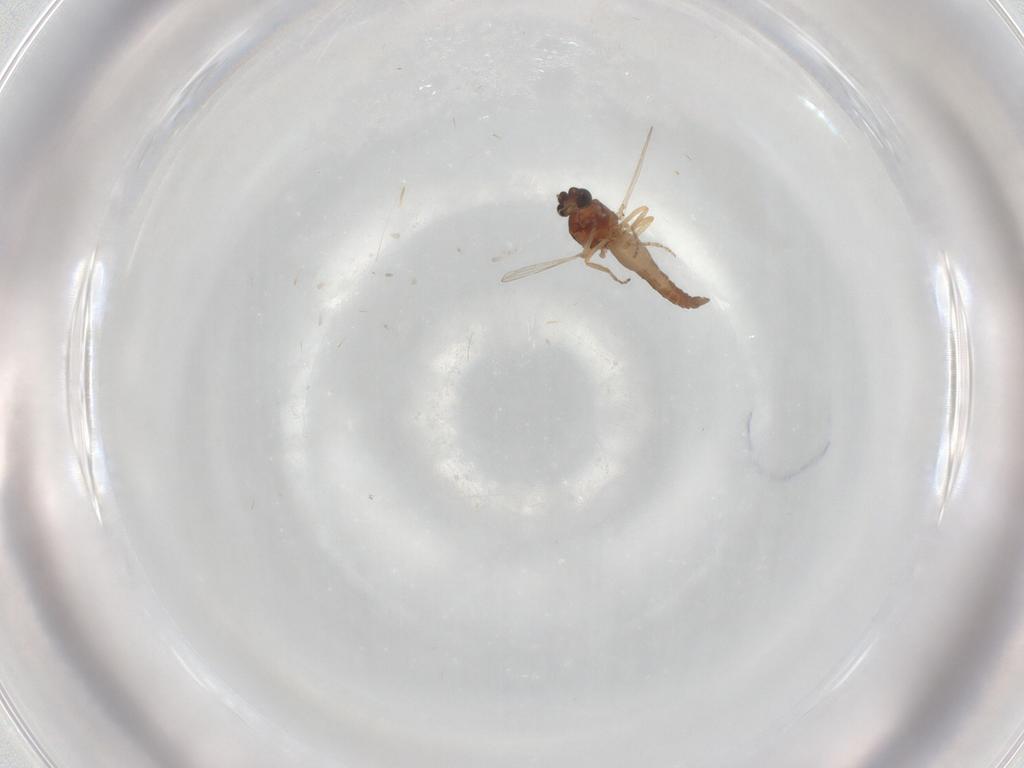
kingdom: Animalia
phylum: Arthropoda
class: Insecta
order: Diptera
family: Ceratopogonidae
